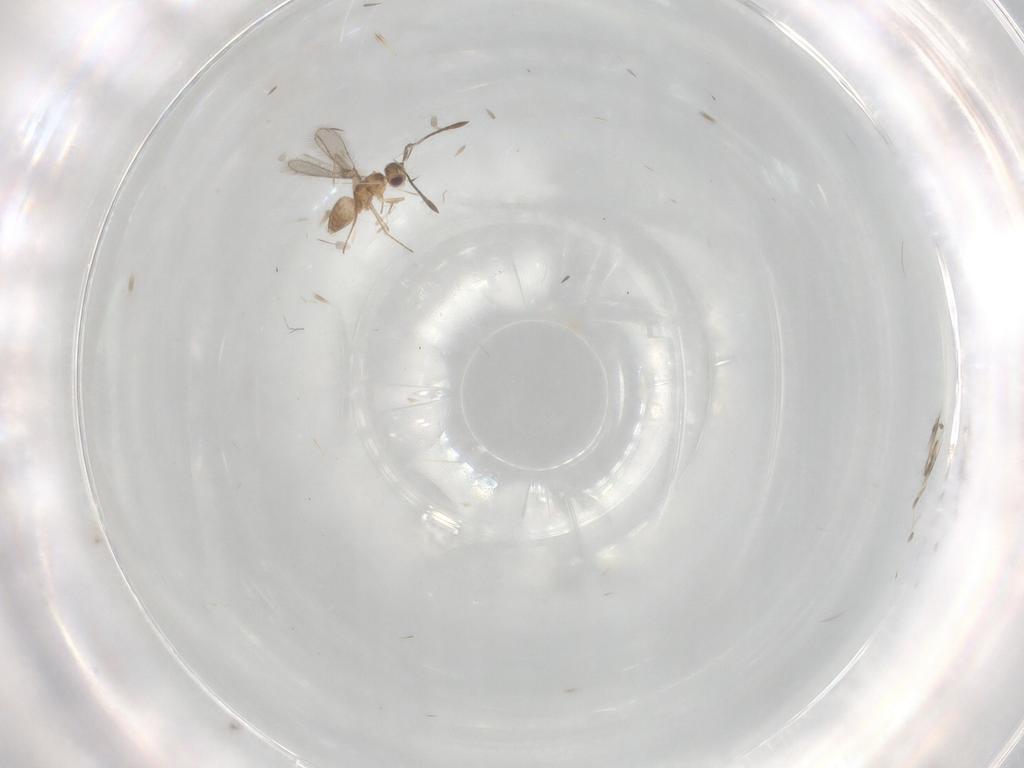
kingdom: Animalia
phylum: Arthropoda
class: Insecta
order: Hymenoptera
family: Mymaridae
